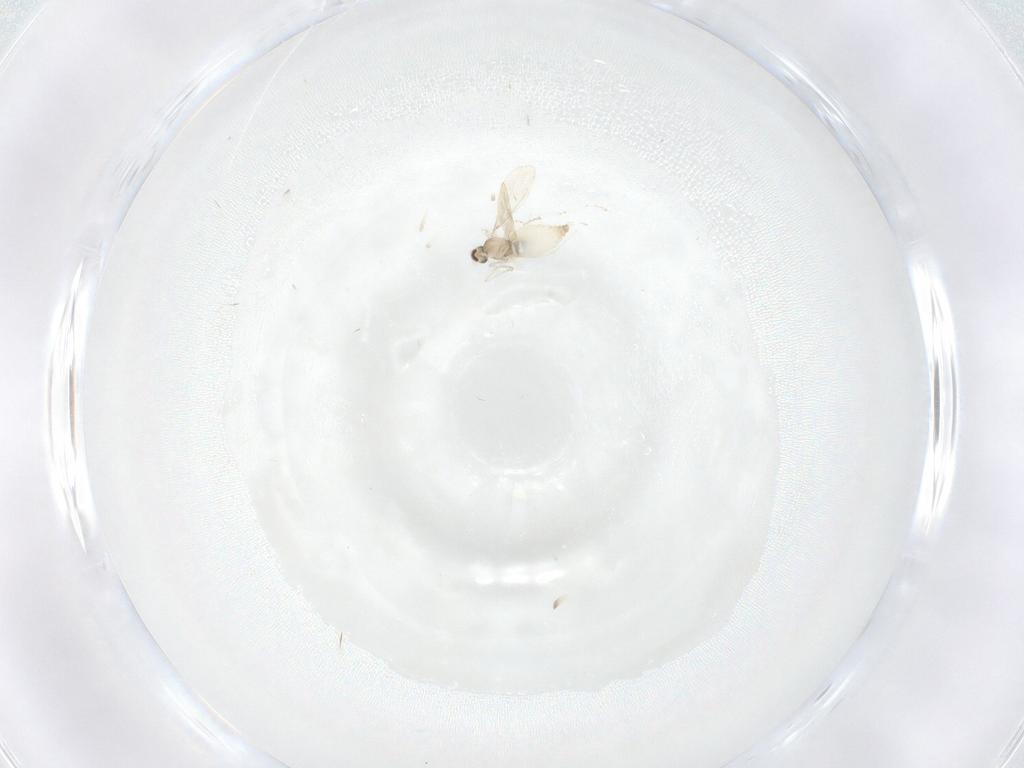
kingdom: Animalia
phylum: Arthropoda
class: Insecta
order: Diptera
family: Cecidomyiidae
